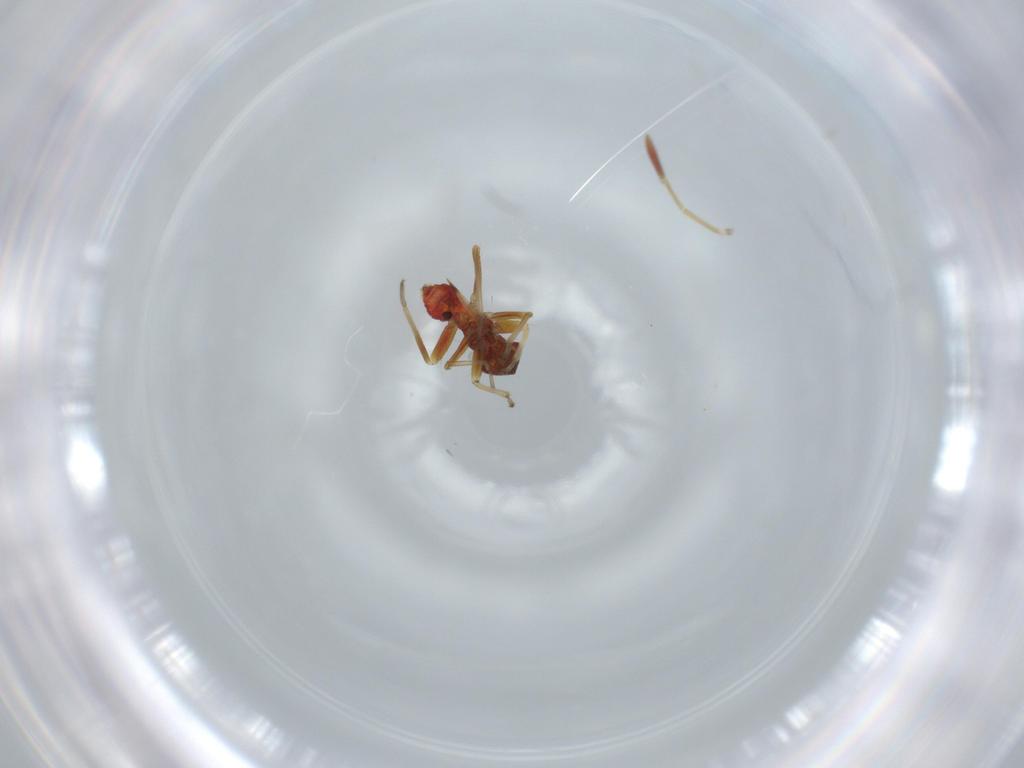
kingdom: Animalia
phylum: Arthropoda
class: Insecta
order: Hemiptera
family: Miridae
